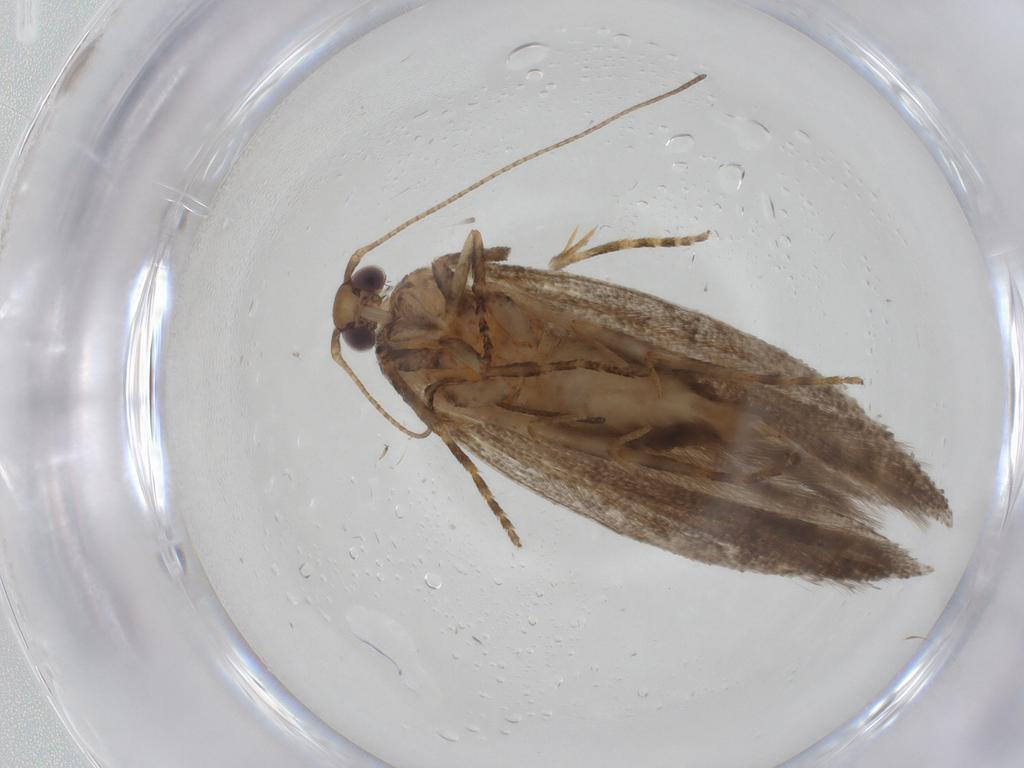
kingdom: Animalia
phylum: Arthropoda
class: Insecta
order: Lepidoptera
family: Gelechiidae
